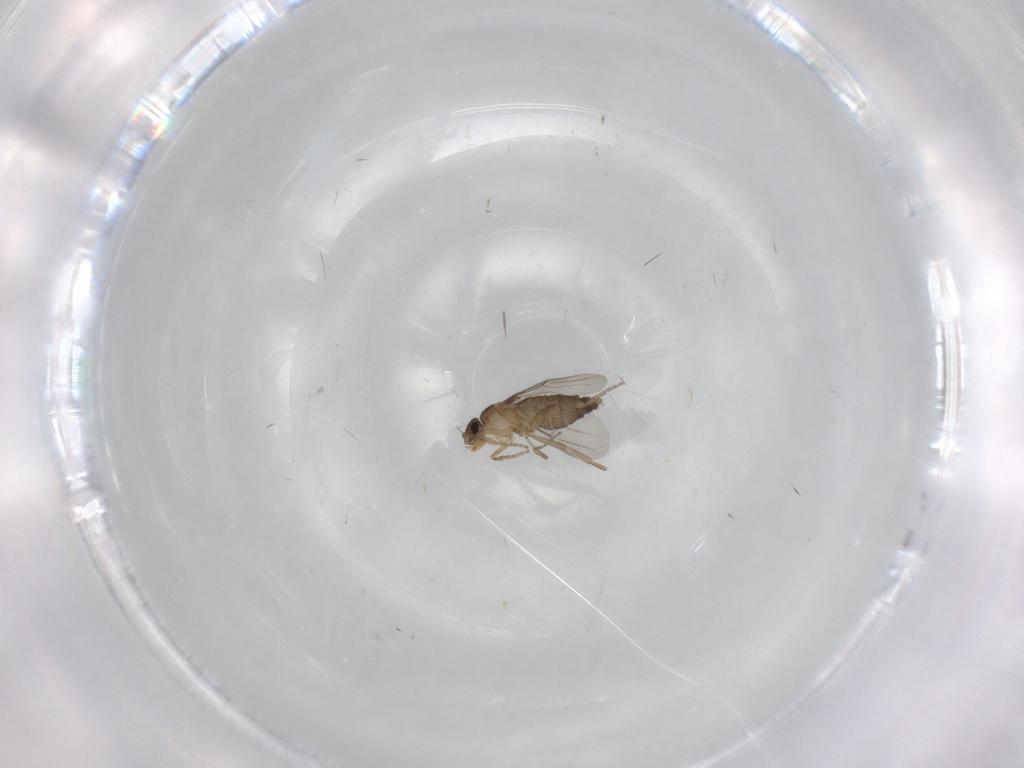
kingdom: Animalia
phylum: Arthropoda
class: Insecta
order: Diptera
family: Phoridae
